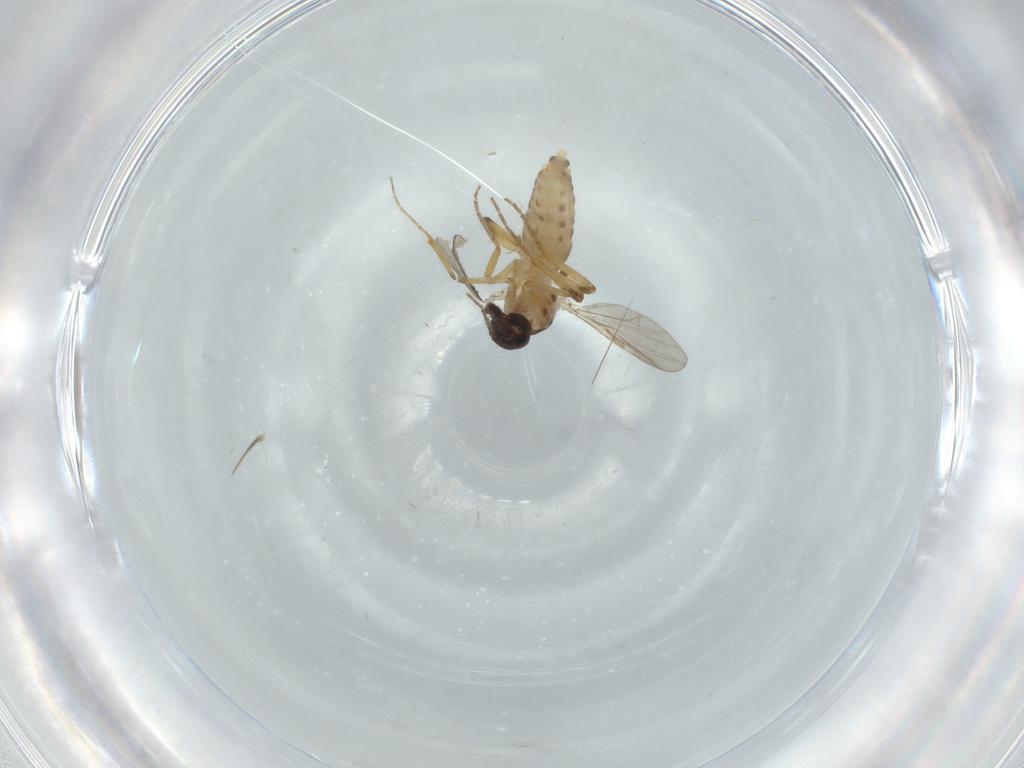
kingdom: Animalia
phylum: Arthropoda
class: Insecta
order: Diptera
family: Ceratopogonidae
